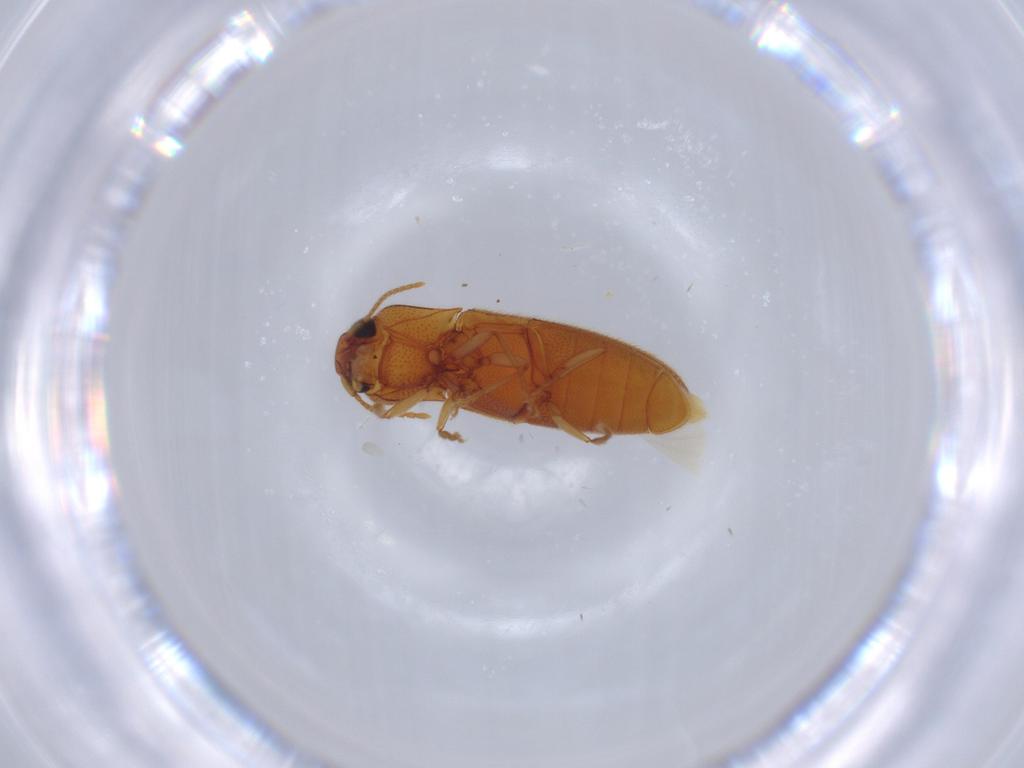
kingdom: Animalia
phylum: Arthropoda
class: Insecta
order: Coleoptera
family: Elateridae
